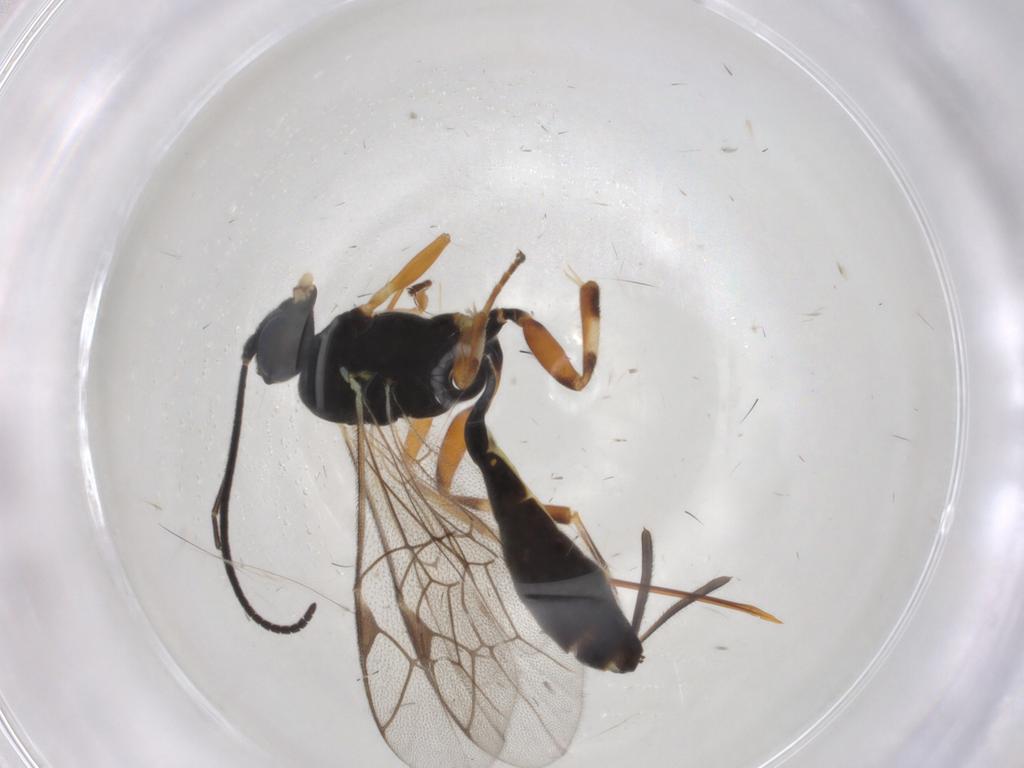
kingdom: Animalia
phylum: Arthropoda
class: Insecta
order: Hymenoptera
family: Ichneumonidae
